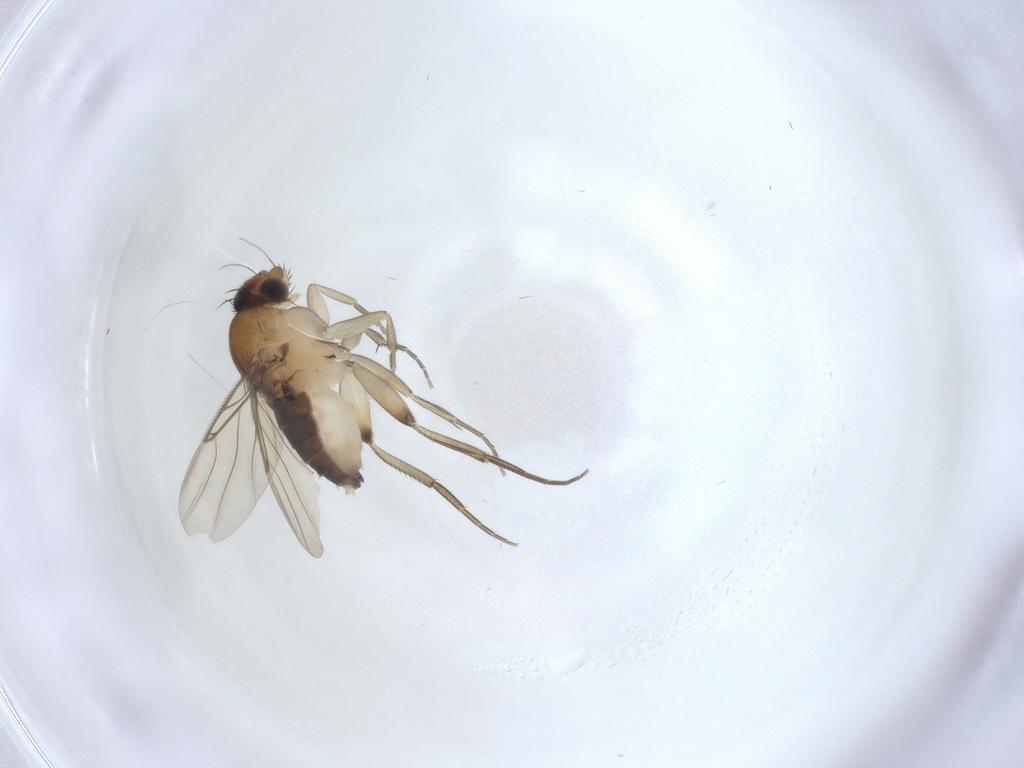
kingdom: Animalia
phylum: Arthropoda
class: Insecta
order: Diptera
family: Phoridae
